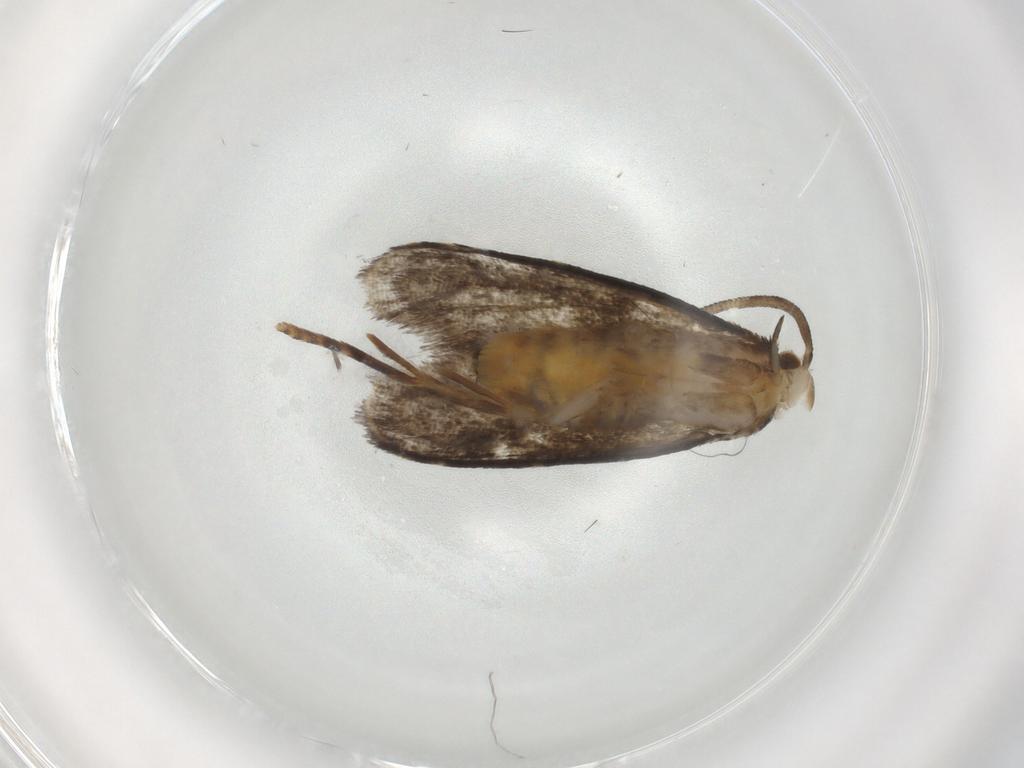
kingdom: Animalia
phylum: Arthropoda
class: Insecta
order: Lepidoptera
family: Dryadaulidae
